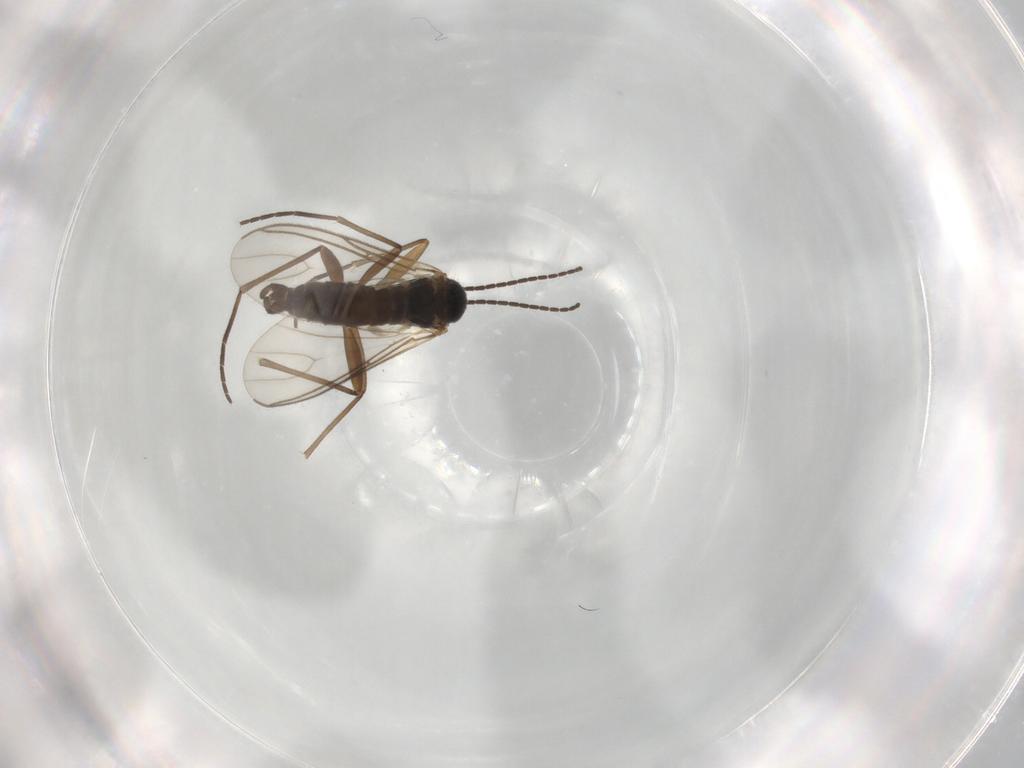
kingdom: Animalia
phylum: Arthropoda
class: Insecta
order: Diptera
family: Sciaridae
